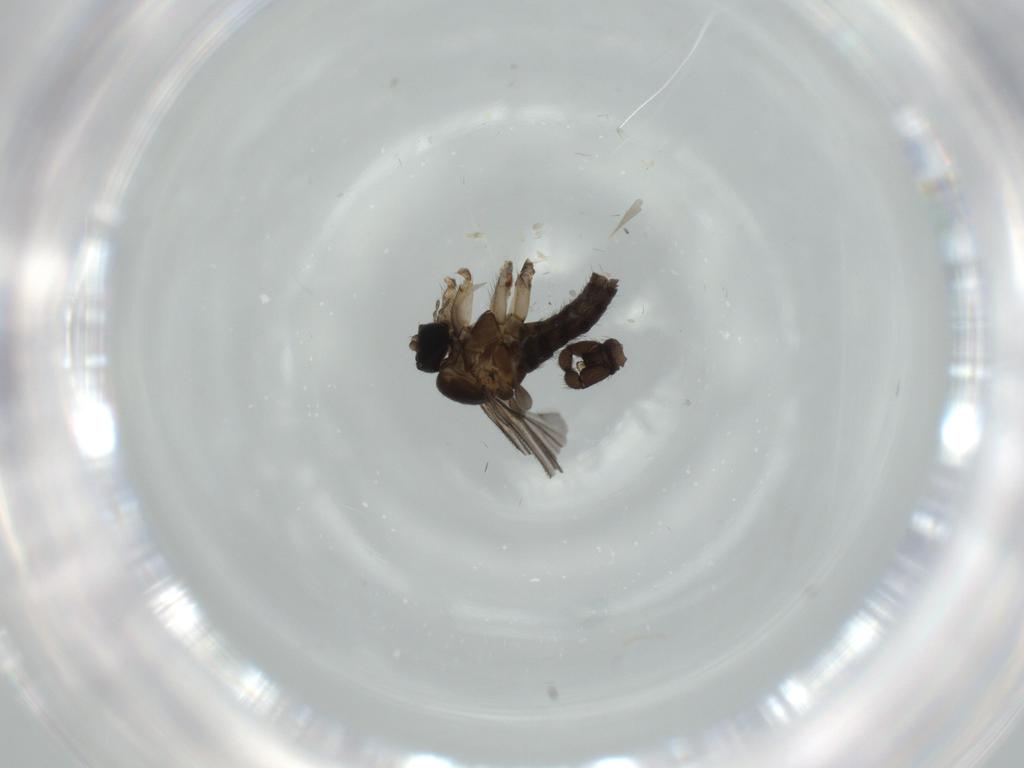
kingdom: Animalia
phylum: Arthropoda
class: Insecta
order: Diptera
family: Sciaridae
